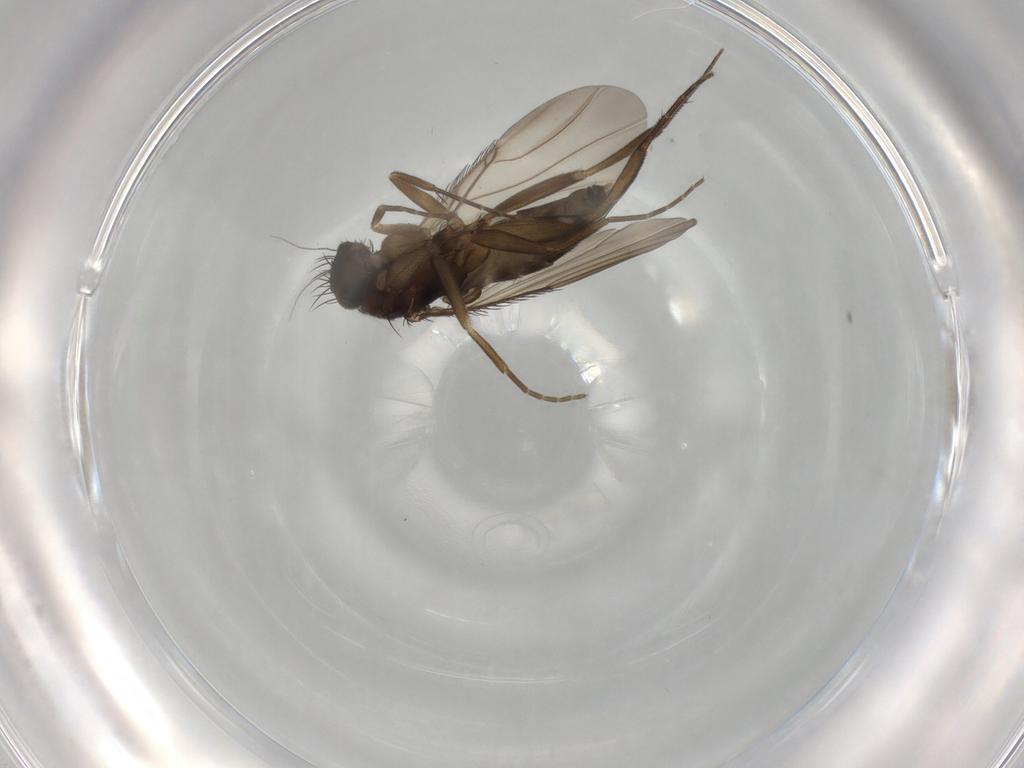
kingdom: Animalia
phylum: Arthropoda
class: Insecta
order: Diptera
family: Phoridae
